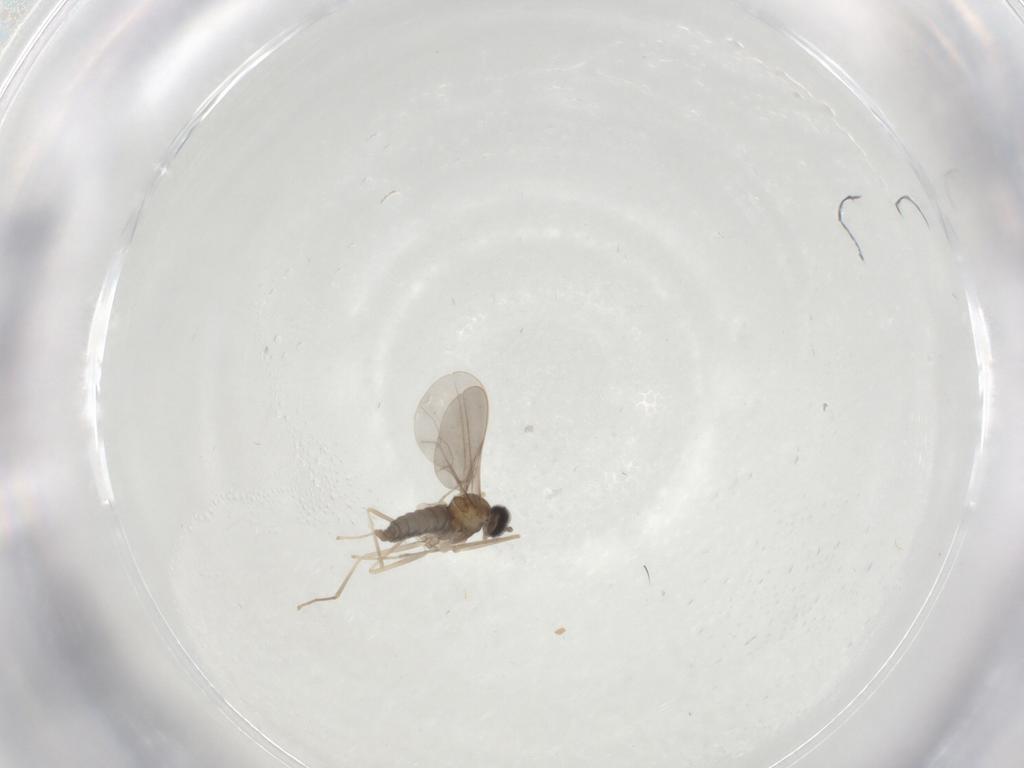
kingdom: Animalia
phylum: Arthropoda
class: Insecta
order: Diptera
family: Cecidomyiidae
